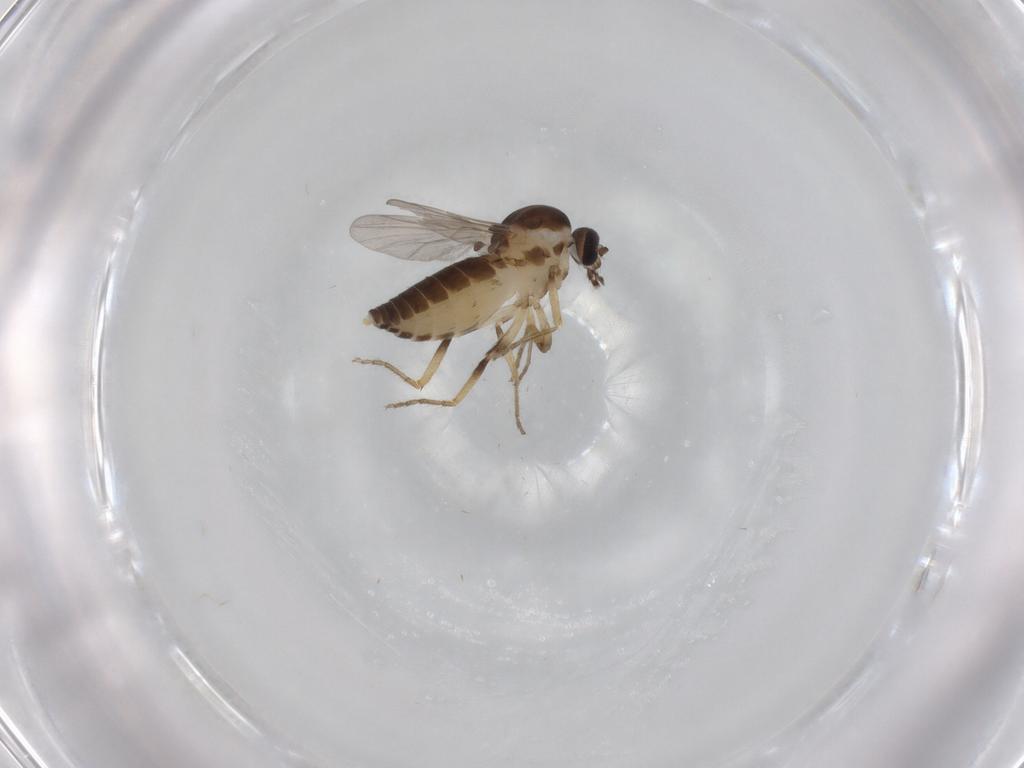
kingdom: Animalia
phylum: Arthropoda
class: Insecta
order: Diptera
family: Ceratopogonidae
